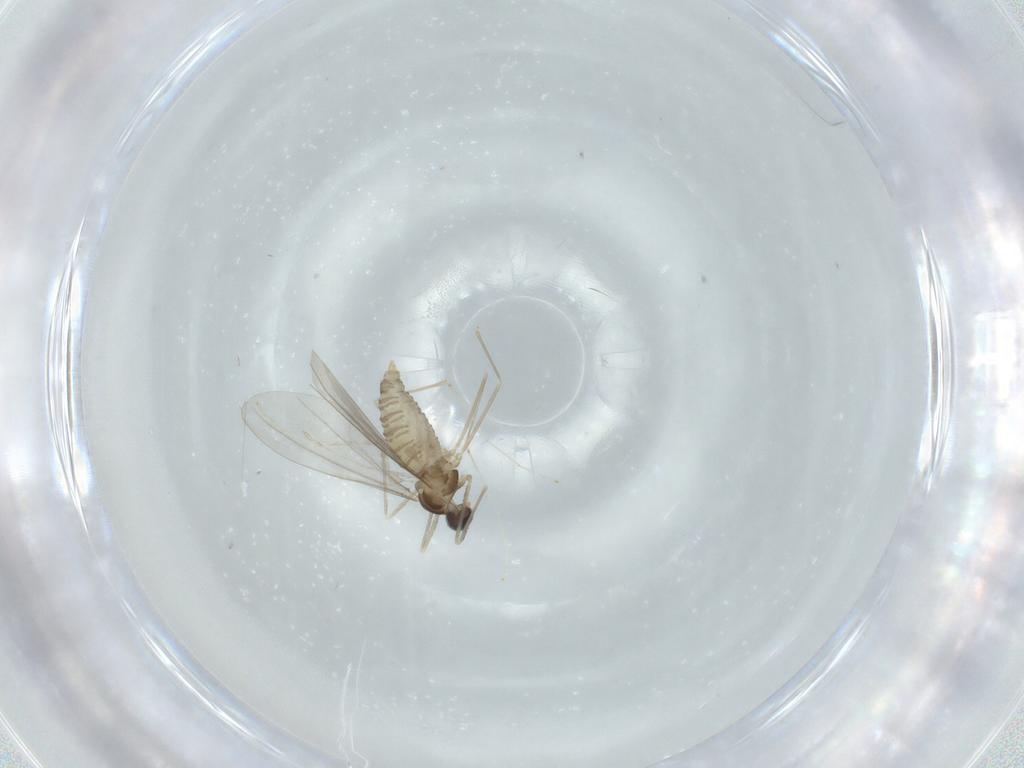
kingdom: Animalia
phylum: Arthropoda
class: Insecta
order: Diptera
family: Cecidomyiidae
